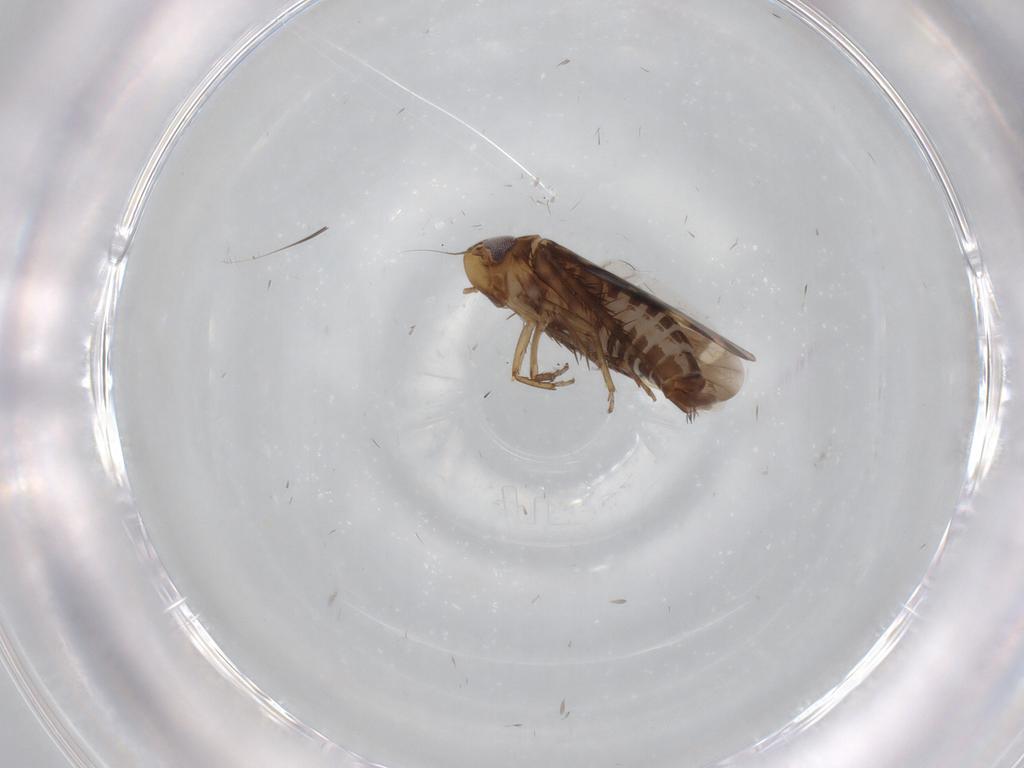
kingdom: Animalia
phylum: Arthropoda
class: Insecta
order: Hemiptera
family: Cicadellidae
